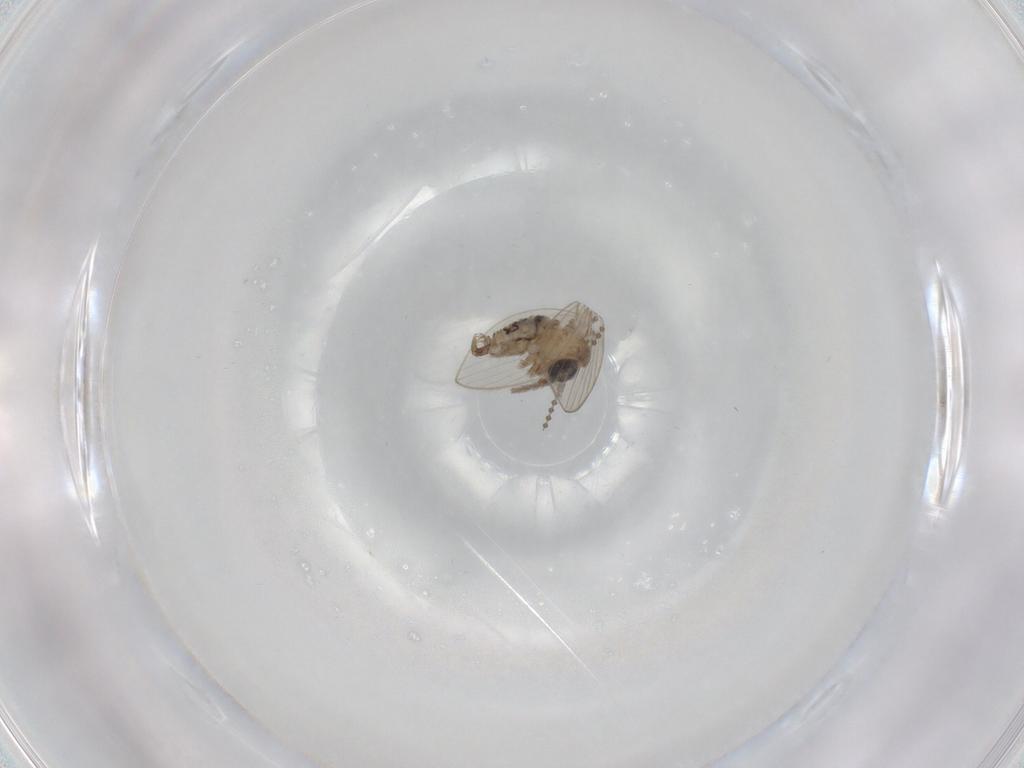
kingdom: Animalia
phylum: Arthropoda
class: Insecta
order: Diptera
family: Psychodidae
